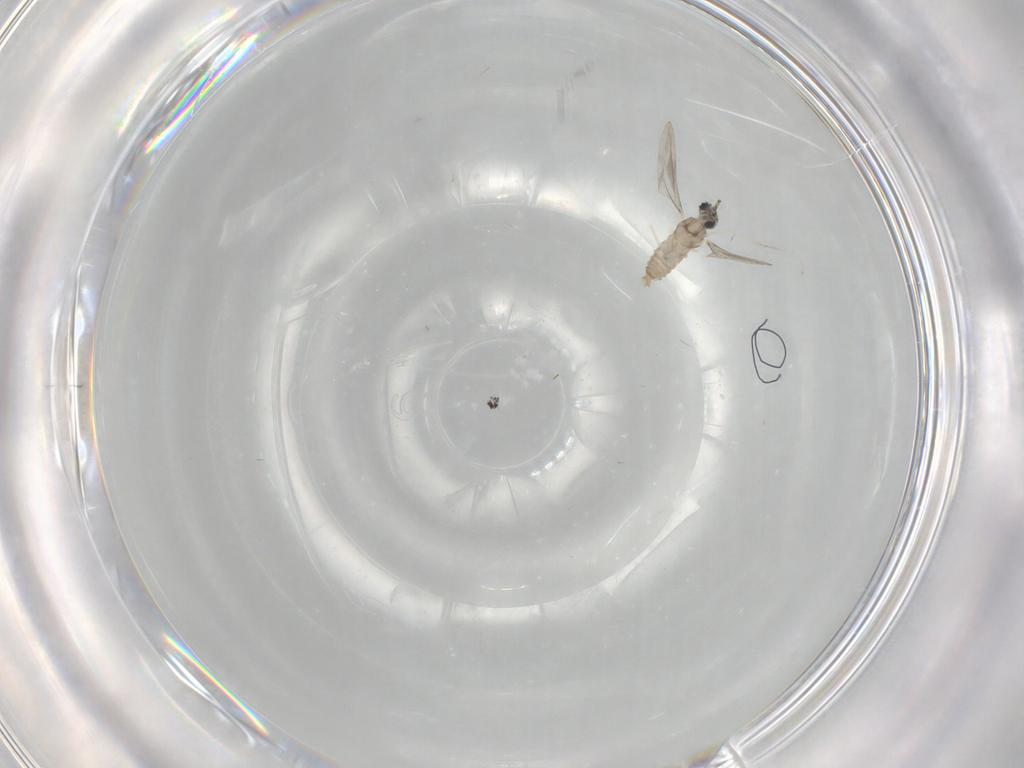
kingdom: Animalia
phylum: Arthropoda
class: Insecta
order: Diptera
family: Cecidomyiidae
